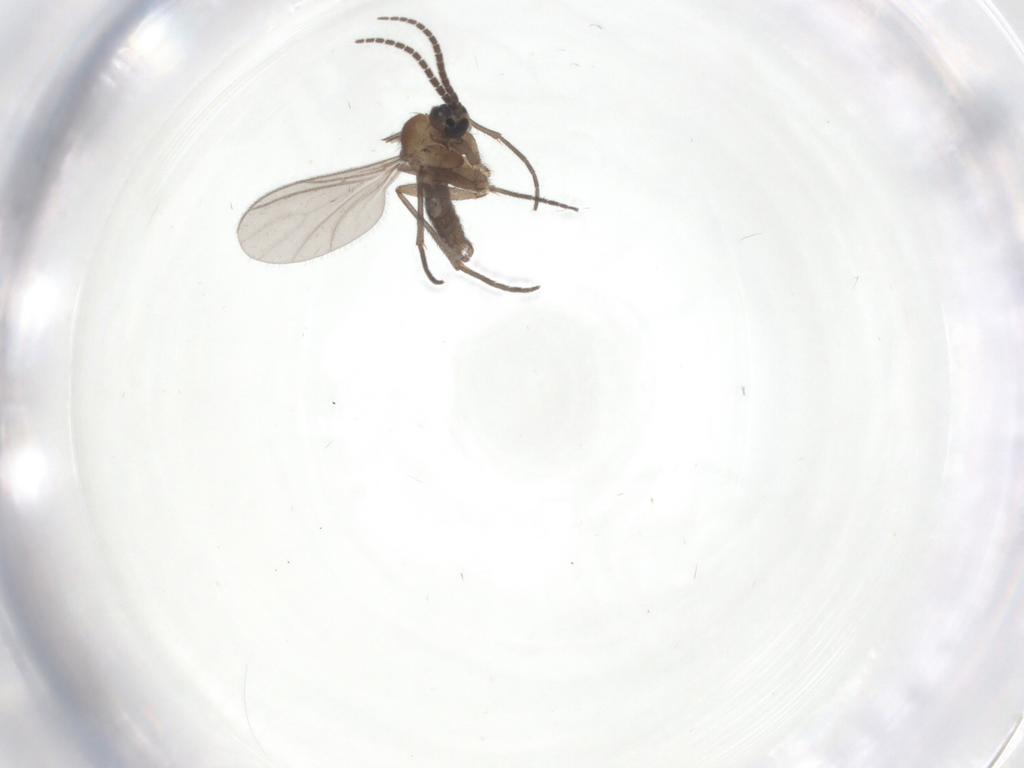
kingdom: Animalia
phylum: Arthropoda
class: Insecta
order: Diptera
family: Sciaridae
